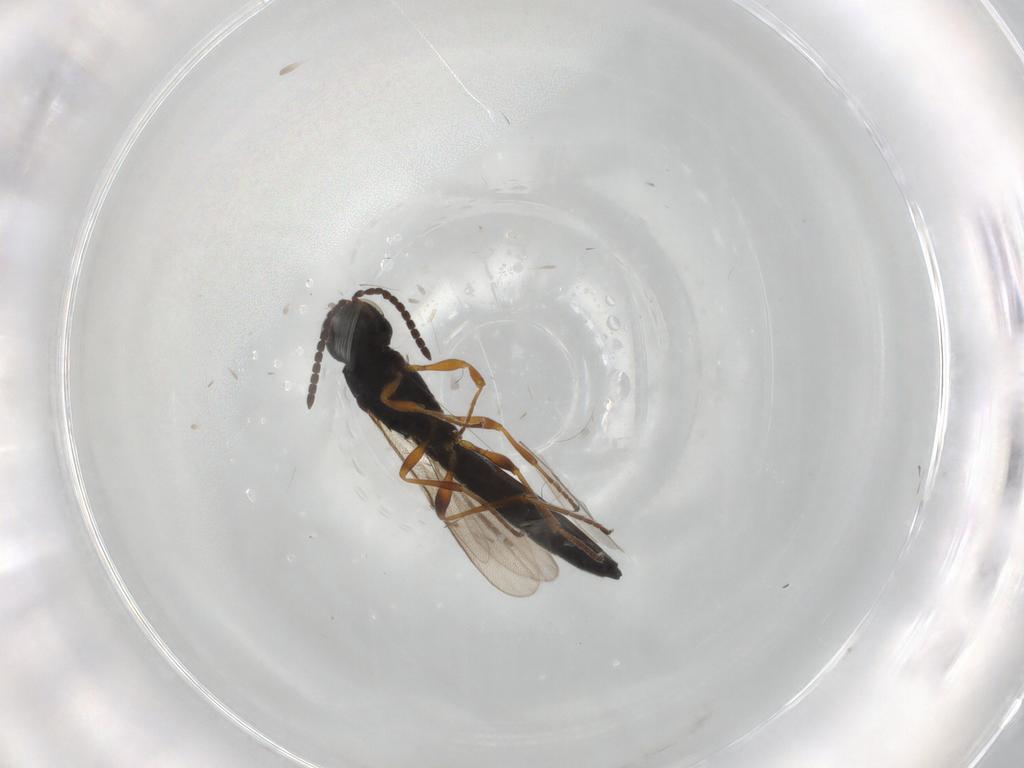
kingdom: Animalia
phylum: Arthropoda
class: Insecta
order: Hymenoptera
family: Scelionidae
